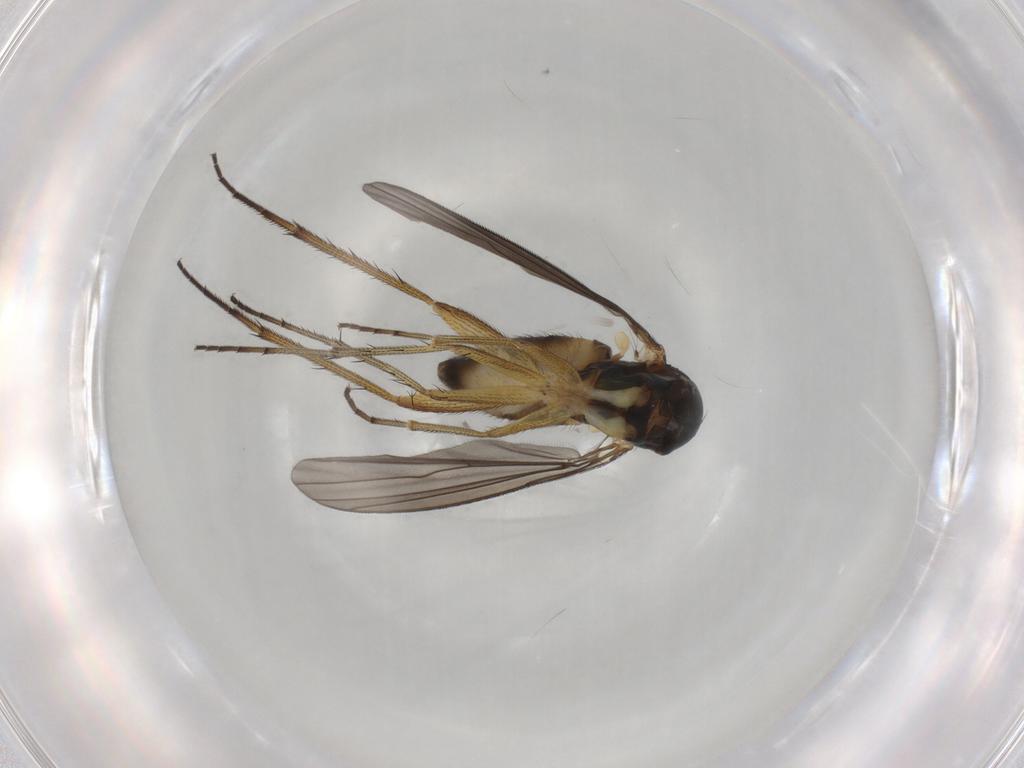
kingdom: Animalia
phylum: Arthropoda
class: Insecta
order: Diptera
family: Dolichopodidae
